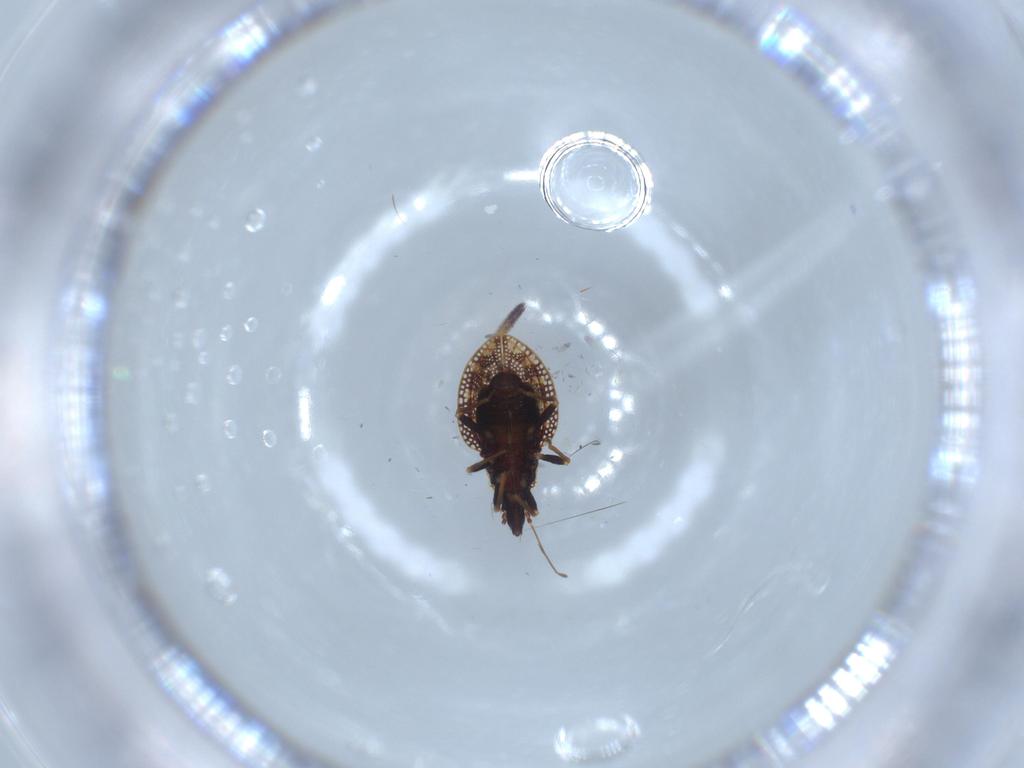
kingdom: Animalia
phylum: Arthropoda
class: Insecta
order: Hemiptera
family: Tingidae
